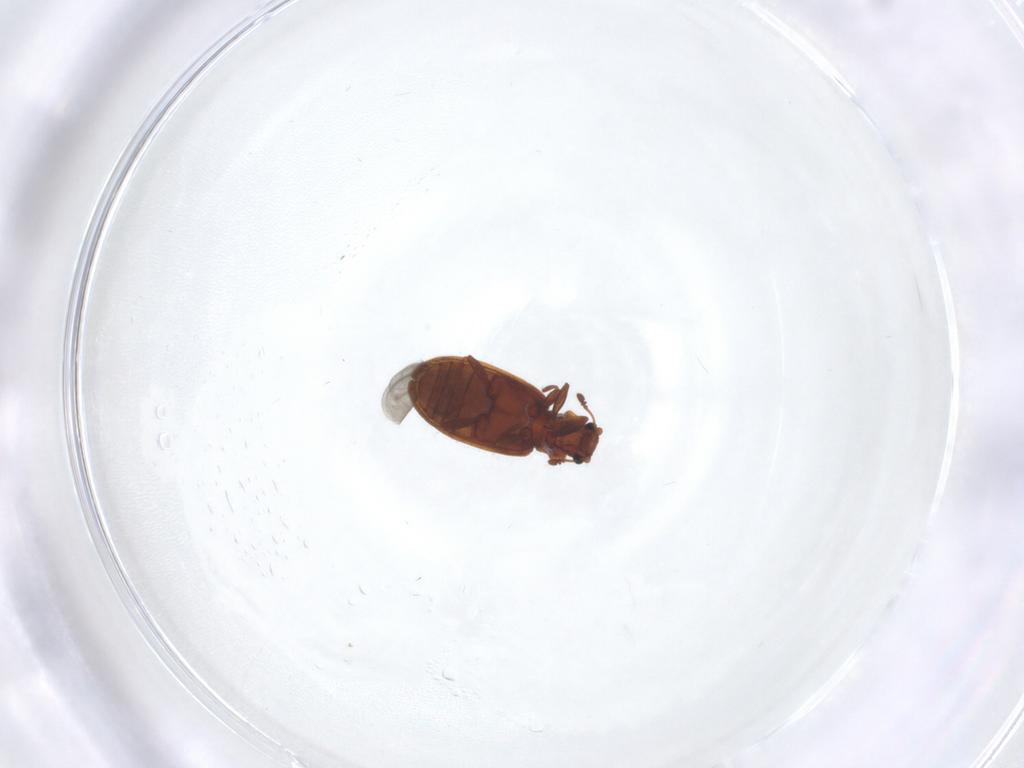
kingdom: Animalia
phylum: Arthropoda
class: Insecta
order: Coleoptera
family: Latridiidae
